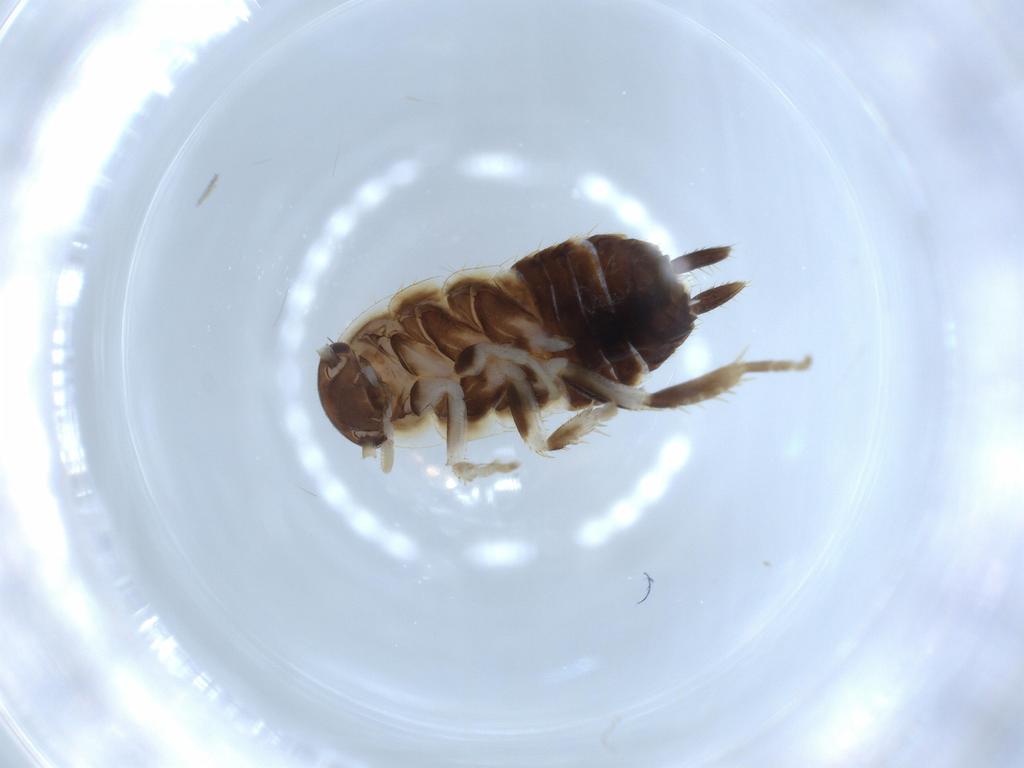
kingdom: Animalia
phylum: Arthropoda
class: Insecta
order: Blattodea
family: Ectobiidae
